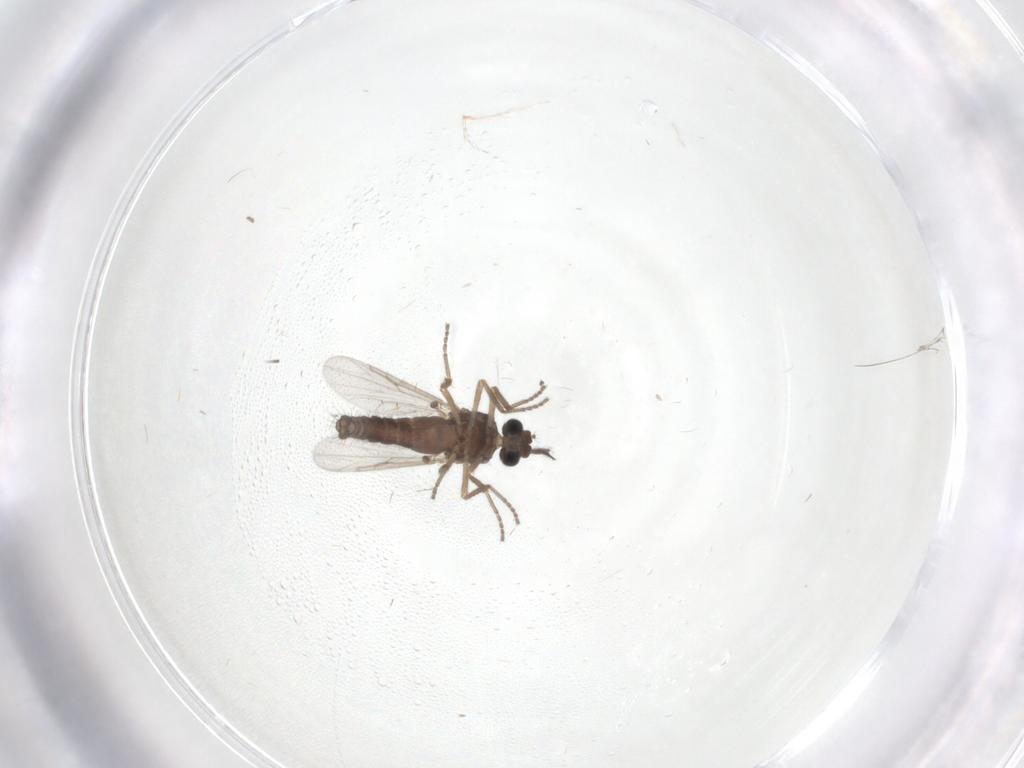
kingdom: Animalia
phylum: Arthropoda
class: Insecta
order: Diptera
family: Ceratopogonidae
